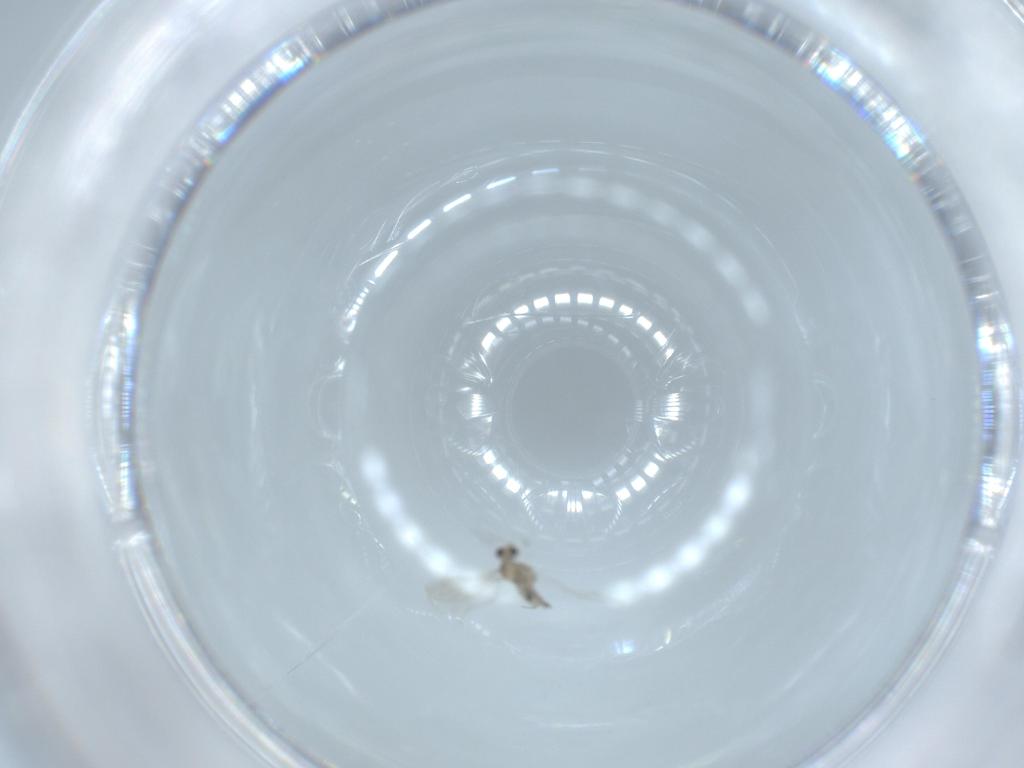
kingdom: Animalia
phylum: Arthropoda
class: Insecta
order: Diptera
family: Cecidomyiidae
